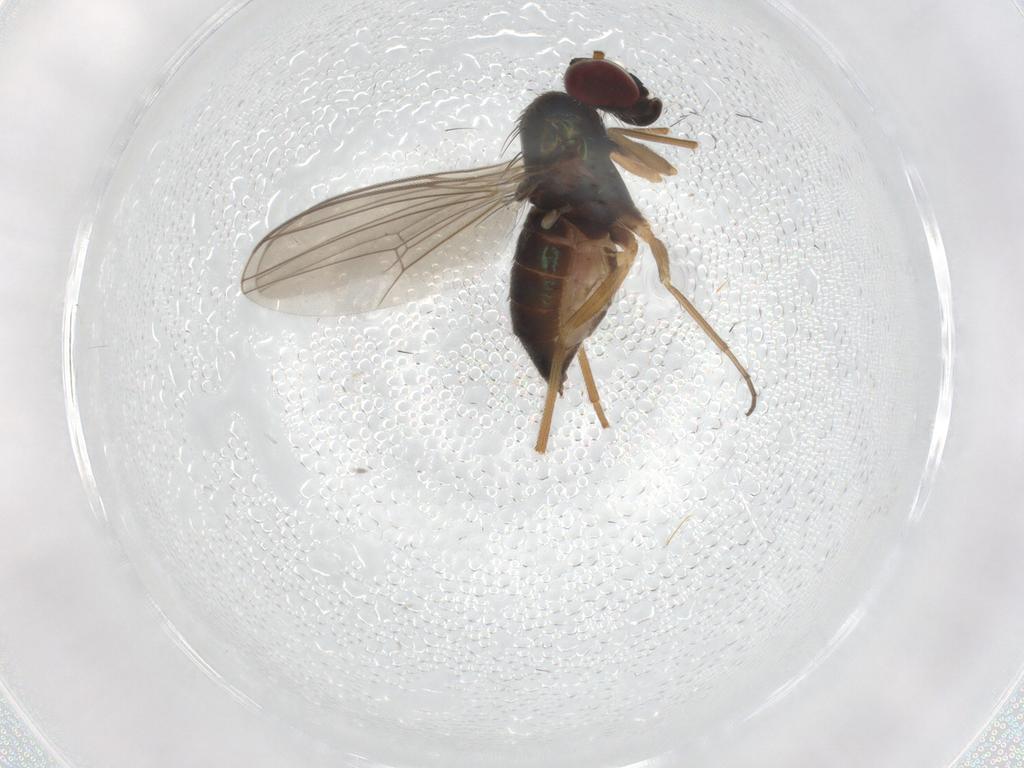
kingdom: Animalia
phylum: Arthropoda
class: Insecta
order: Diptera
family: Dolichopodidae
